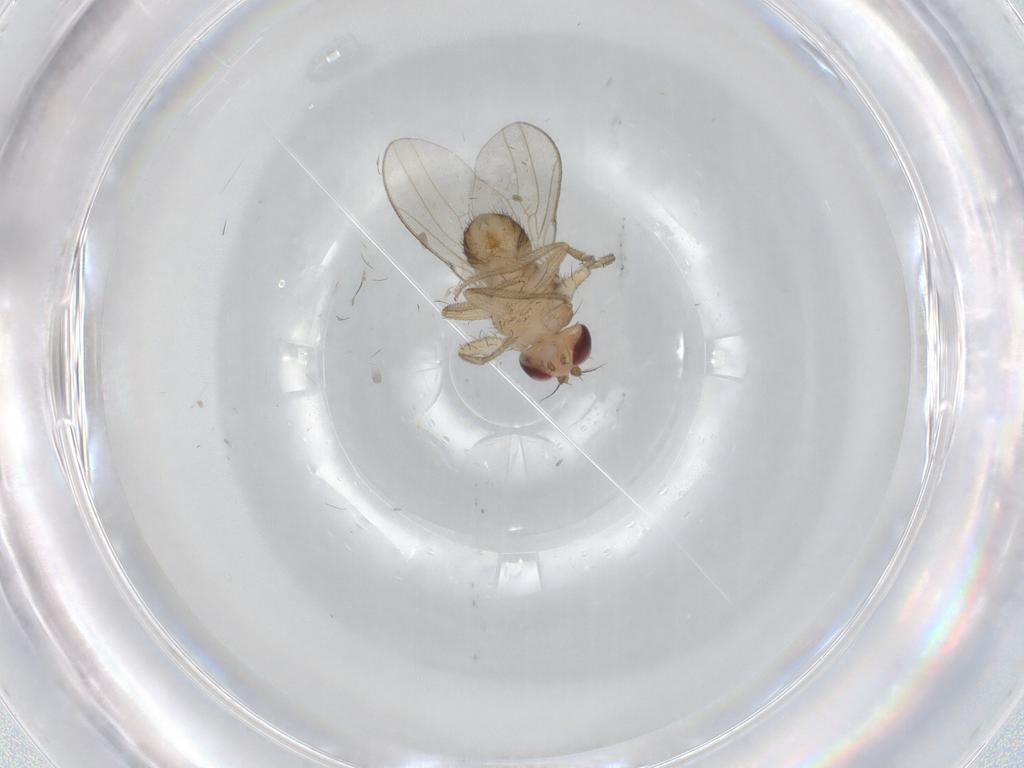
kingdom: Animalia
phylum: Arthropoda
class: Insecta
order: Diptera
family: Drosophilidae
